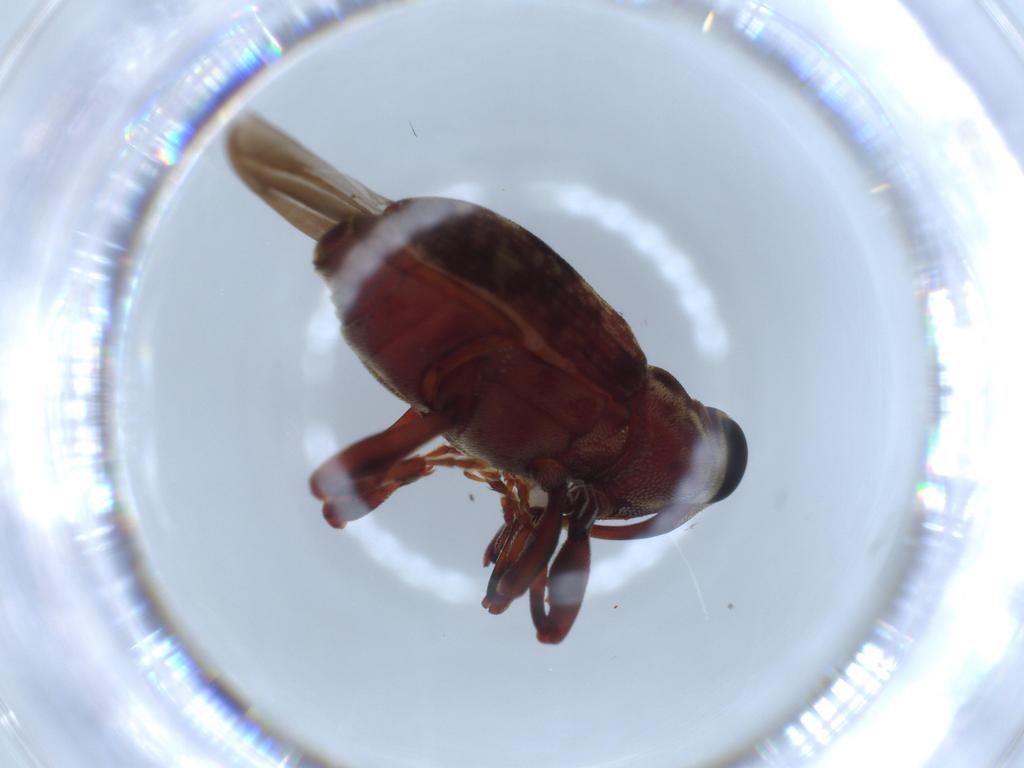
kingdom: Animalia
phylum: Arthropoda
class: Insecta
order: Coleoptera
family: Curculionidae
